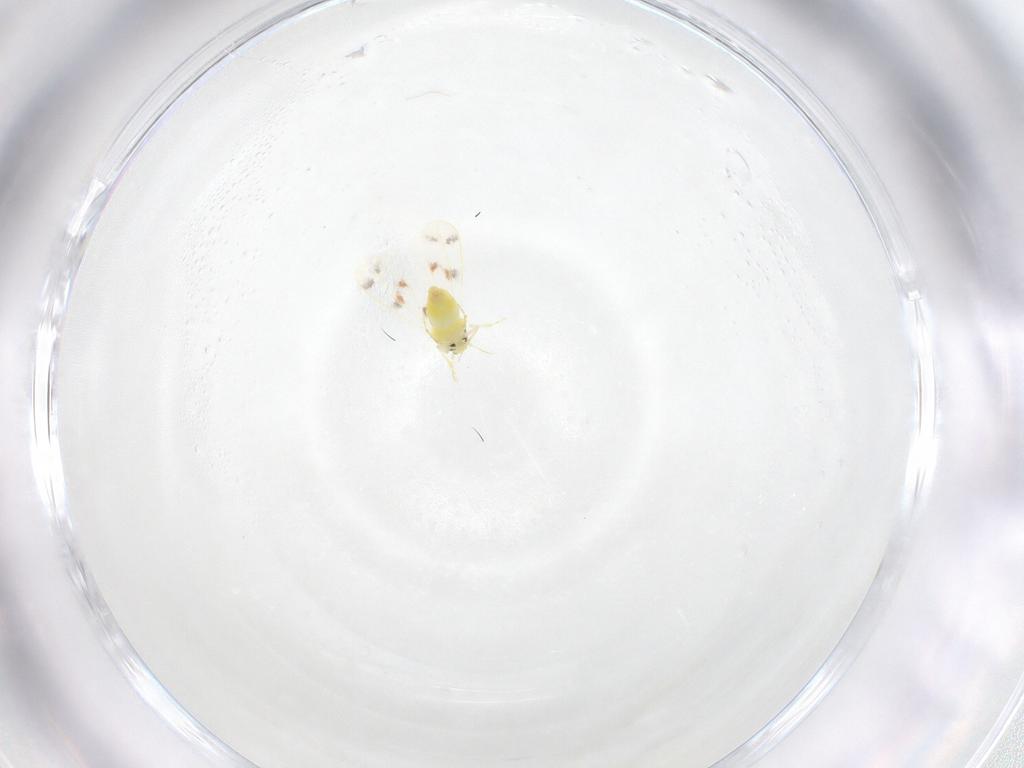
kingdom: Animalia
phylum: Arthropoda
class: Insecta
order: Hemiptera
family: Aleyrodidae
